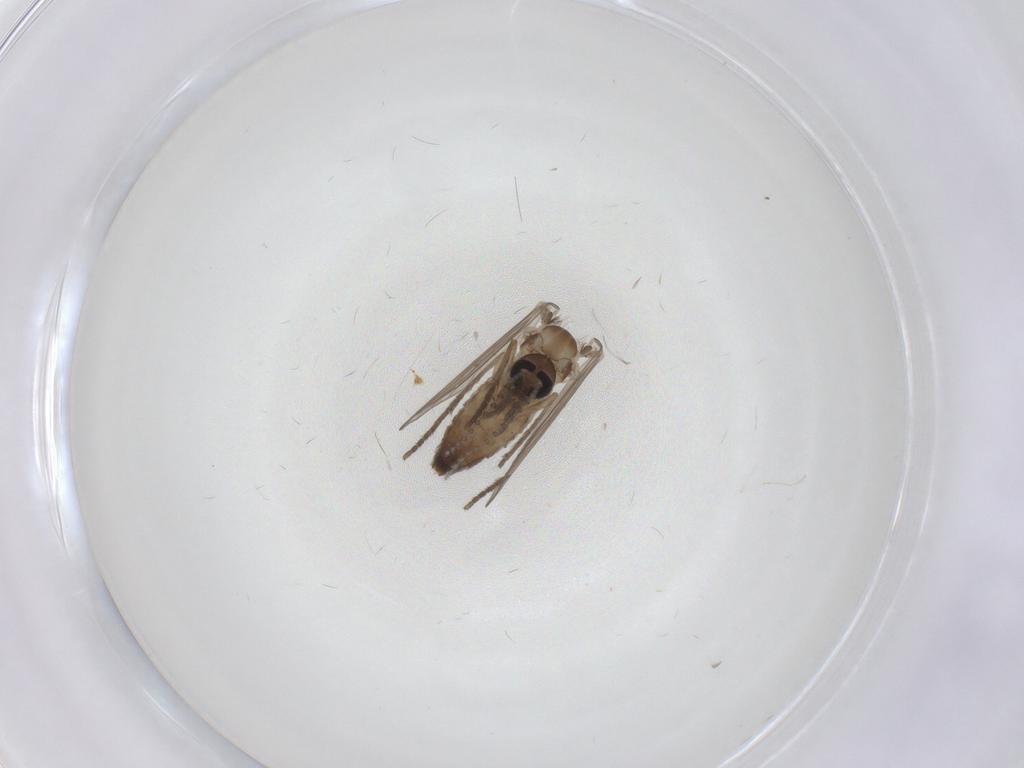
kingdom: Animalia
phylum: Arthropoda
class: Insecta
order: Diptera
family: Psychodidae
